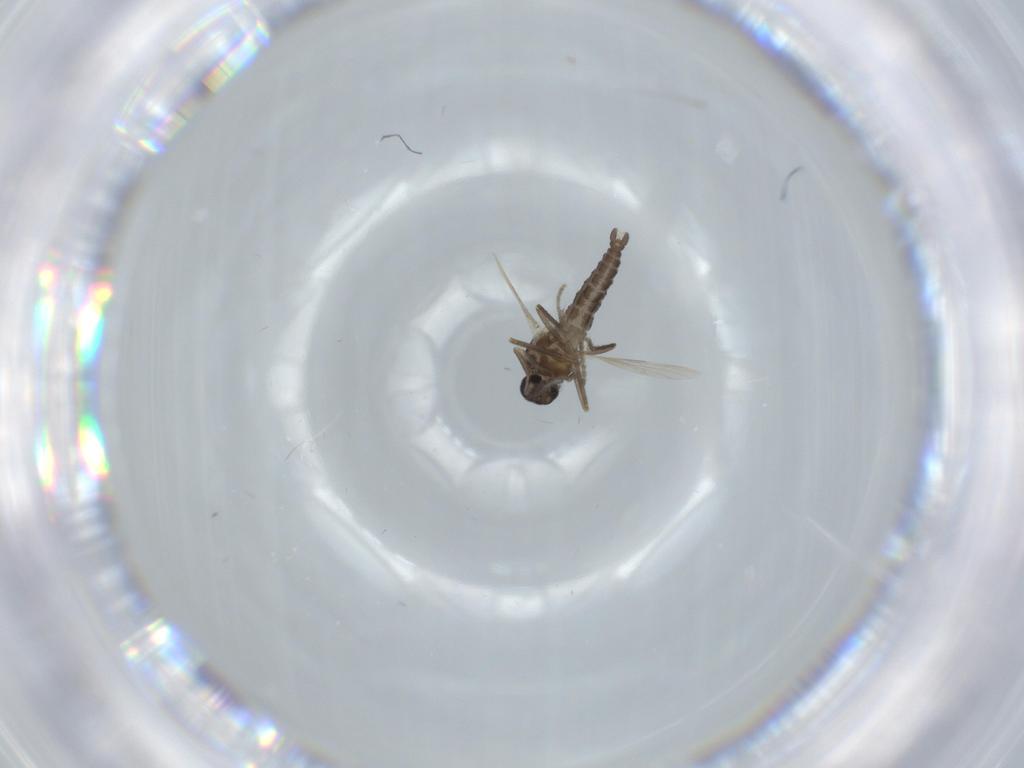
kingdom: Animalia
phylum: Arthropoda
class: Insecta
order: Diptera
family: Ceratopogonidae
